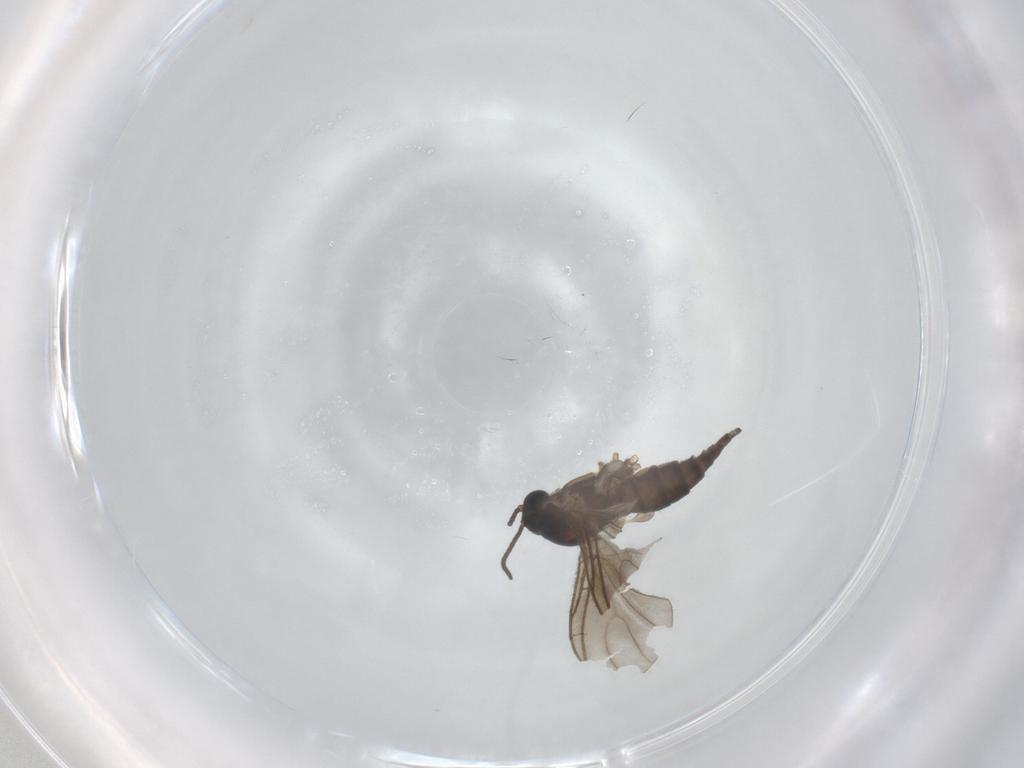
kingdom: Animalia
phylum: Arthropoda
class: Insecta
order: Diptera
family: Sciaridae
